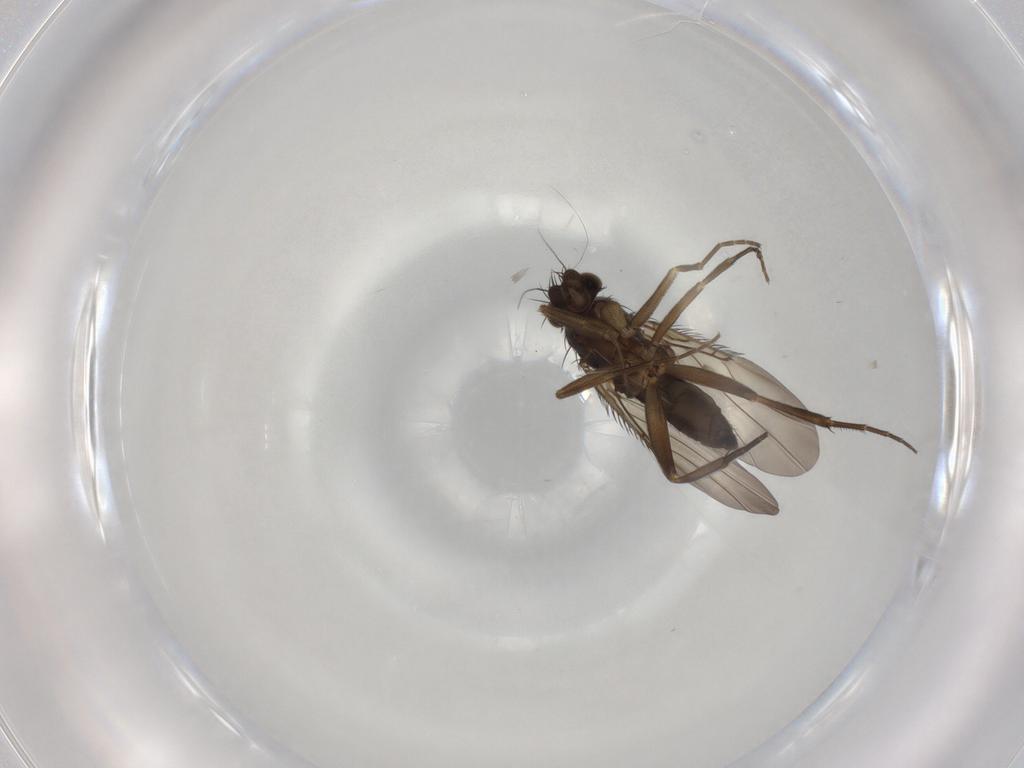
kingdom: Animalia
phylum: Arthropoda
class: Insecta
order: Diptera
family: Phoridae
